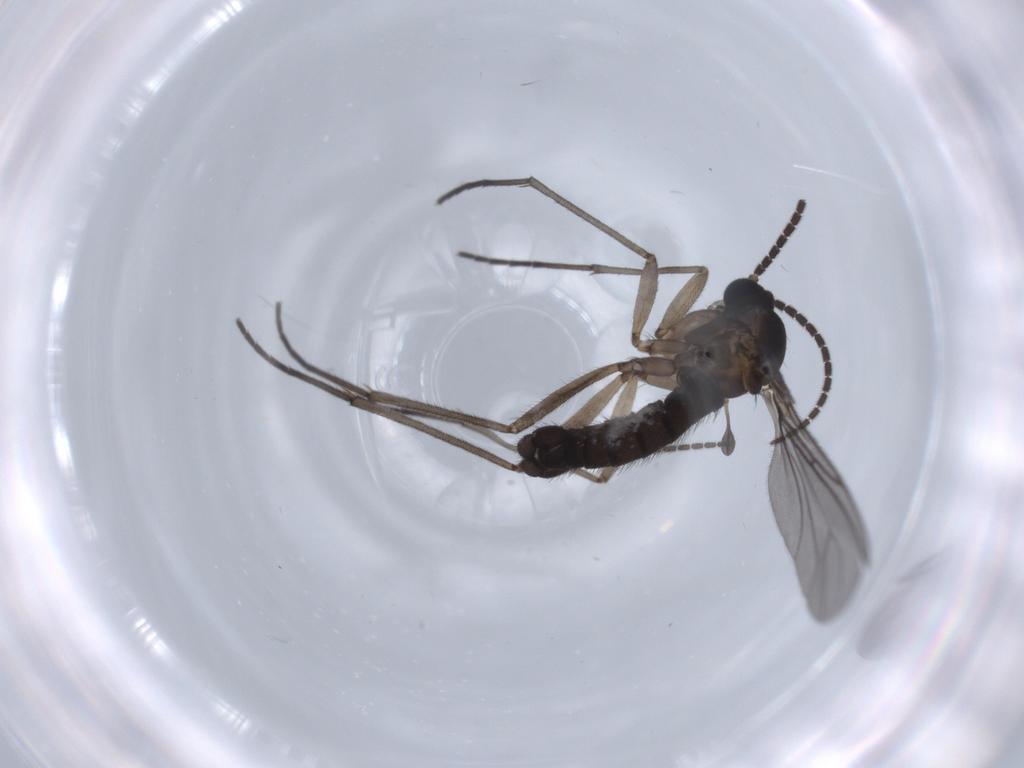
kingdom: Animalia
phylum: Arthropoda
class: Insecta
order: Diptera
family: Sciaridae
